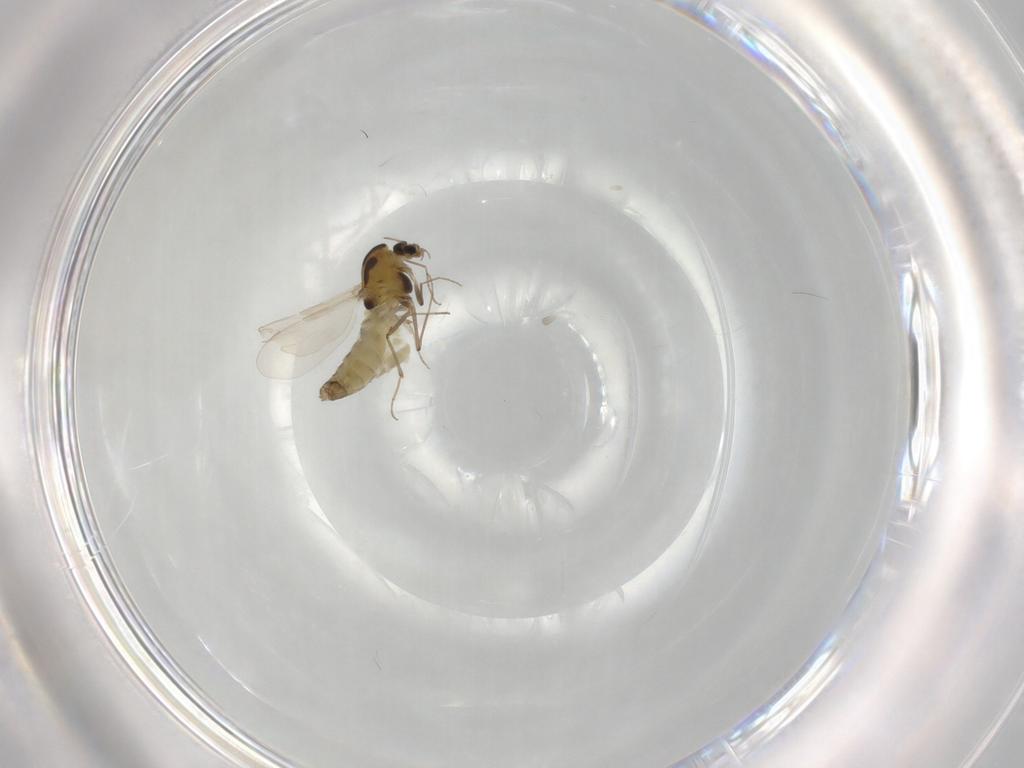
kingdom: Animalia
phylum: Arthropoda
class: Insecta
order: Diptera
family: Chironomidae
